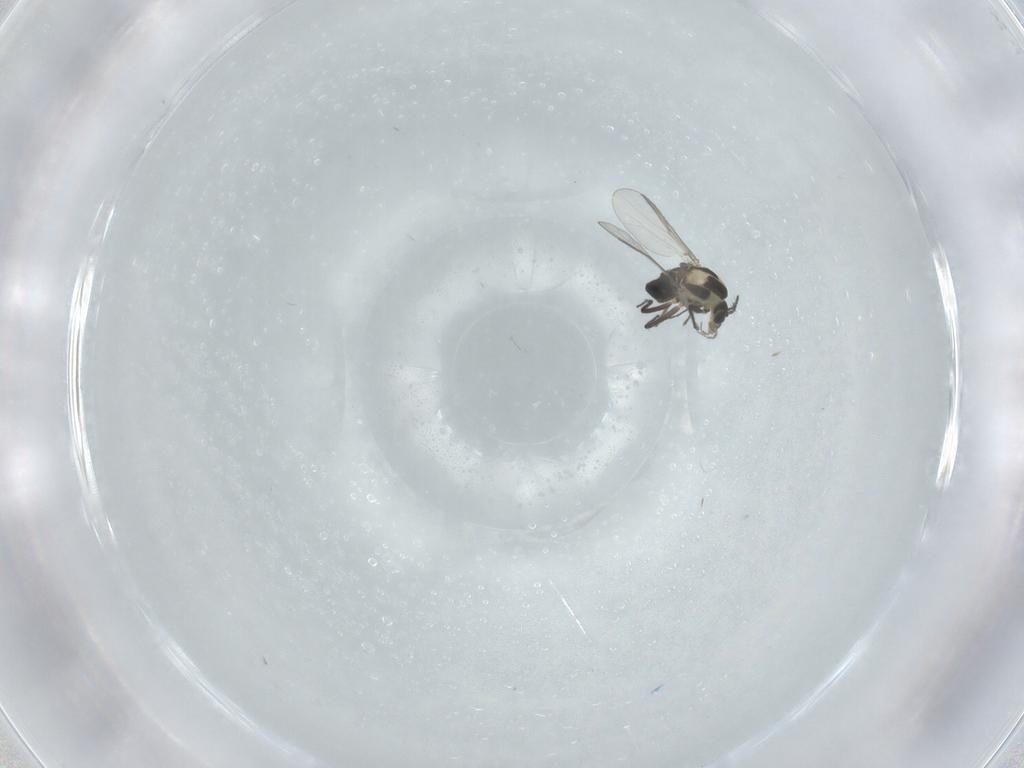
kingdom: Animalia
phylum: Arthropoda
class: Insecta
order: Diptera
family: Chironomidae
